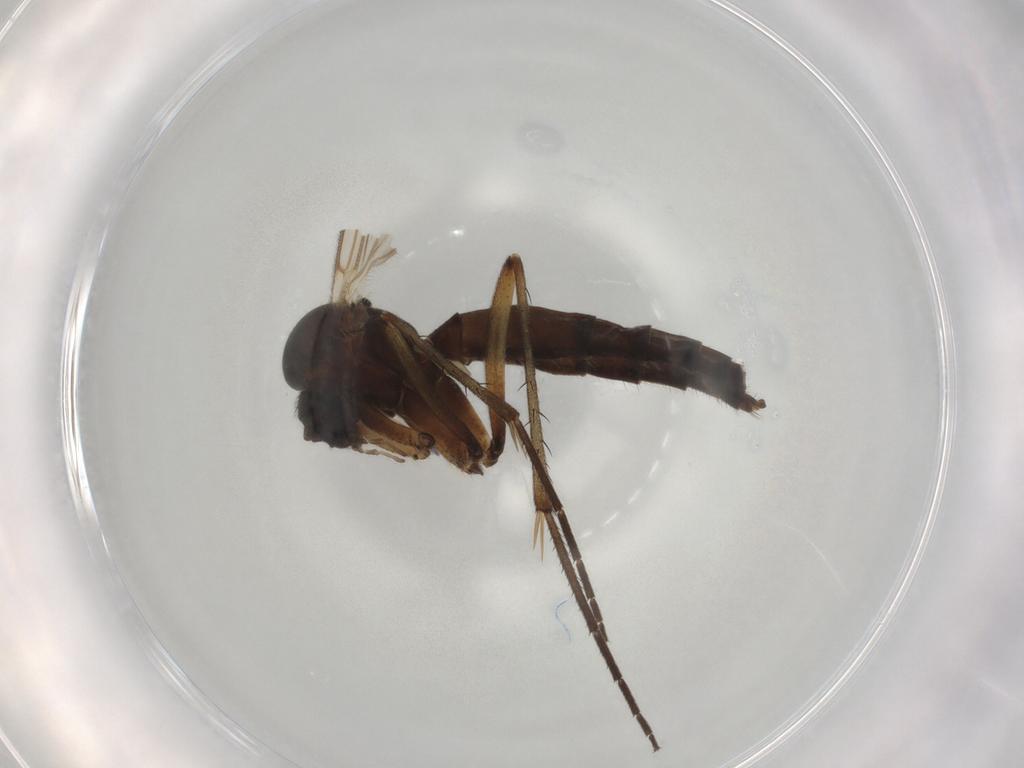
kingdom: Animalia
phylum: Arthropoda
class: Insecta
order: Diptera
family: Mycetophilidae
